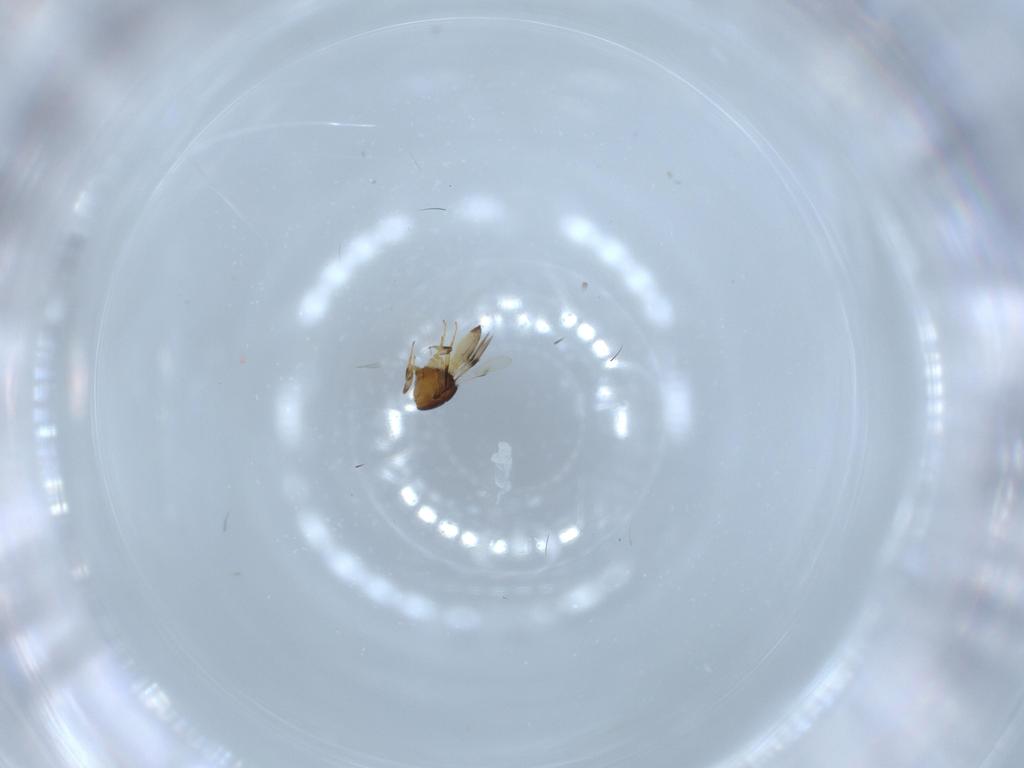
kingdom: Animalia
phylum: Arthropoda
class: Arachnida
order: Araneae
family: Pholcidae
